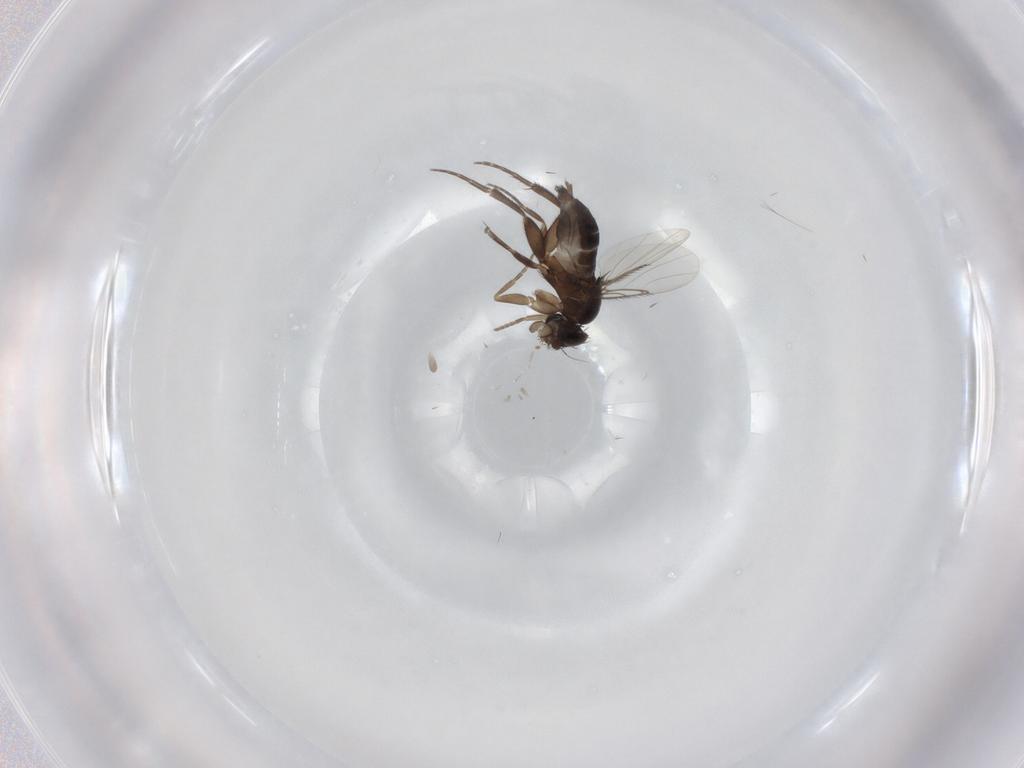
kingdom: Animalia
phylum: Arthropoda
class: Insecta
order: Diptera
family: Phoridae
